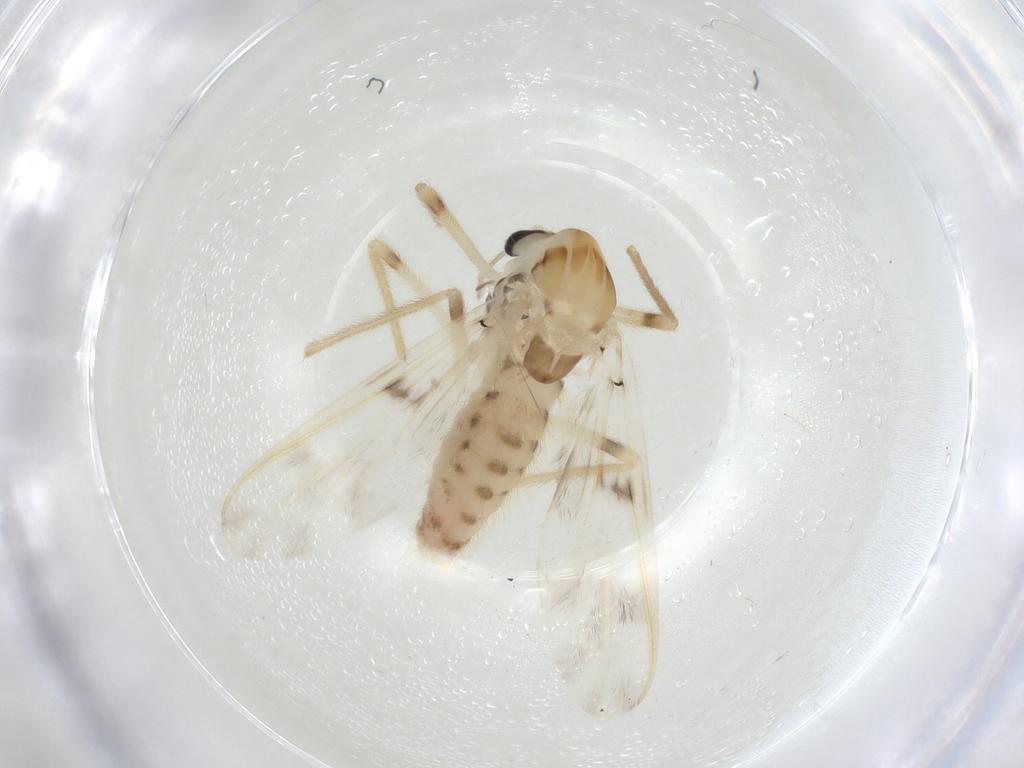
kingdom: Animalia
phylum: Arthropoda
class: Insecta
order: Diptera
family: Chironomidae
